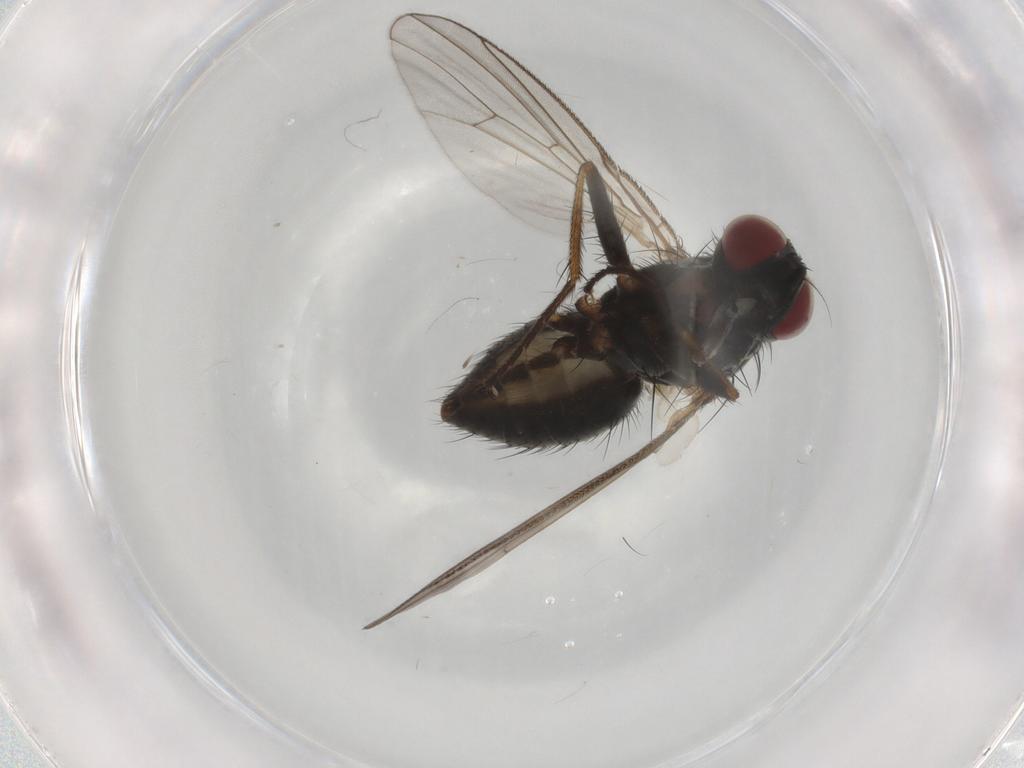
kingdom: Animalia
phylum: Arthropoda
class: Insecta
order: Diptera
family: Muscidae
